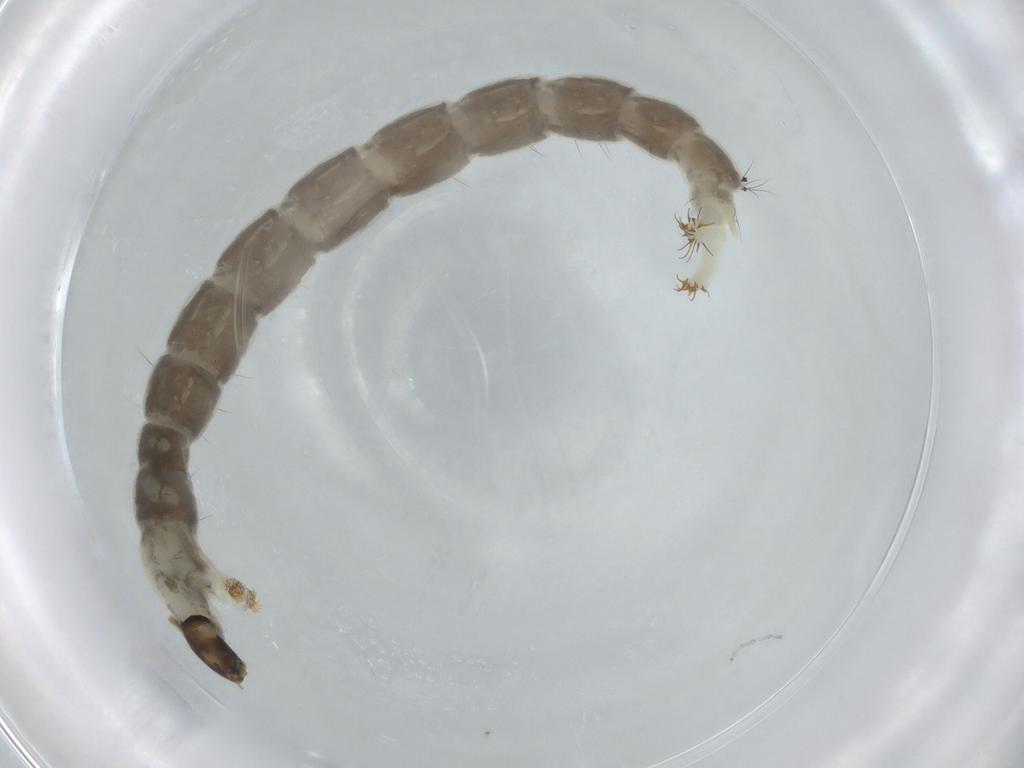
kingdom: Animalia
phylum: Arthropoda
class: Insecta
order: Diptera
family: Chironomidae
